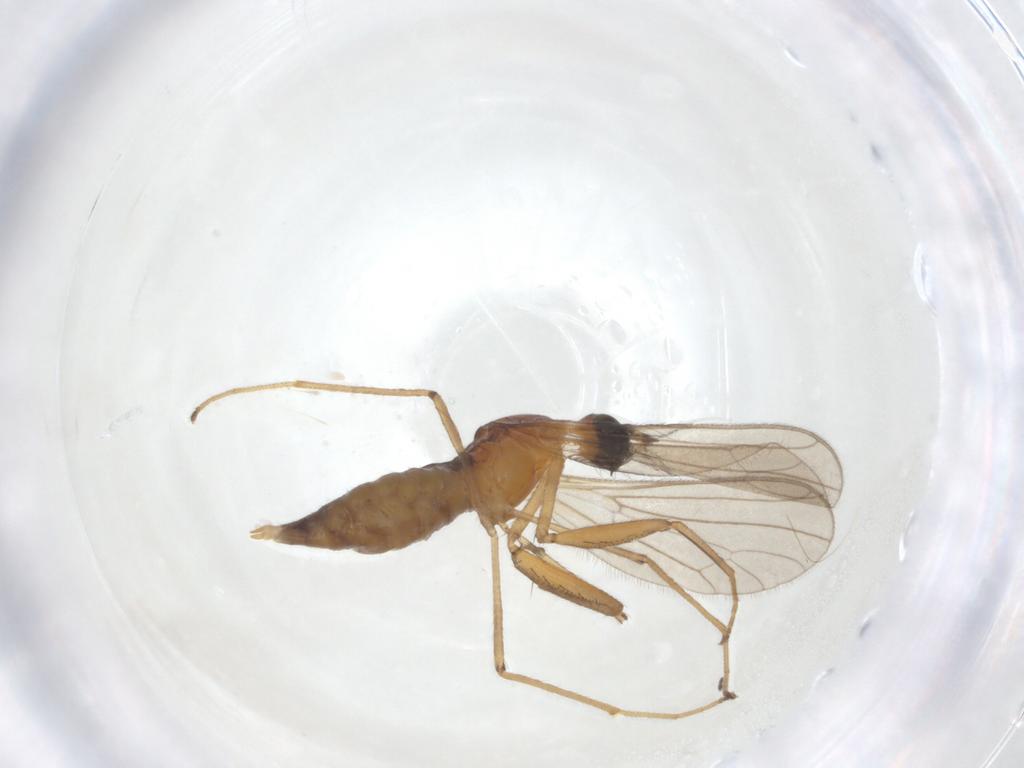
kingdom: Animalia
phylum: Arthropoda
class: Insecta
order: Diptera
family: Empididae
